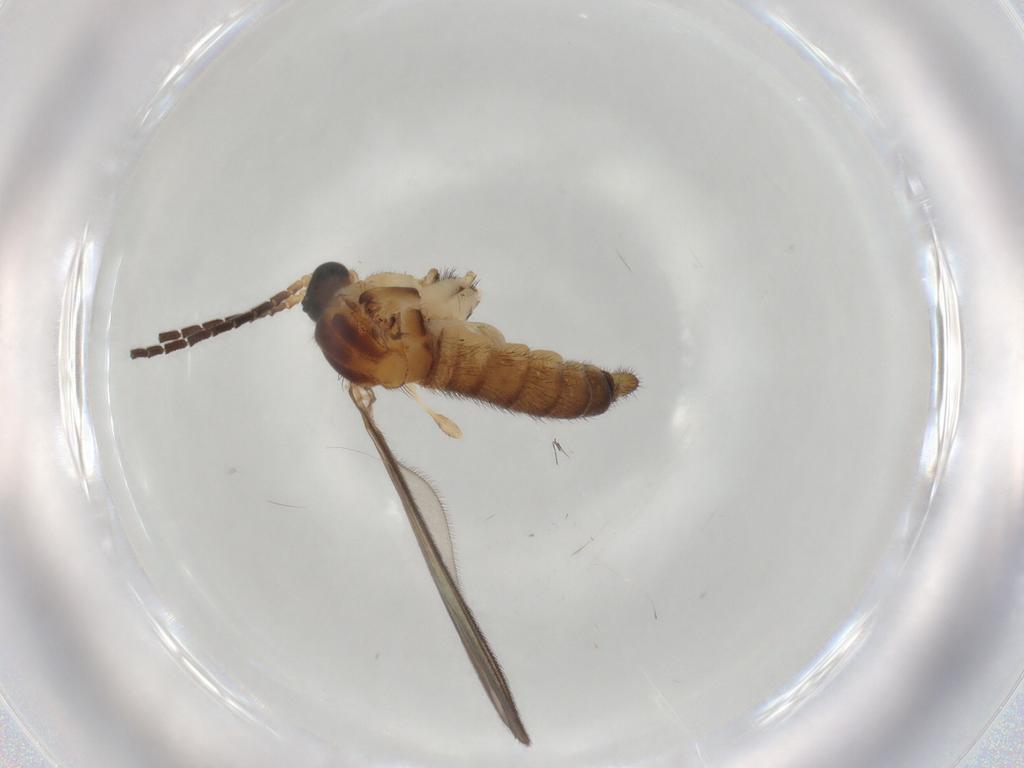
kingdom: Animalia
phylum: Arthropoda
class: Insecta
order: Diptera
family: Sciaridae
